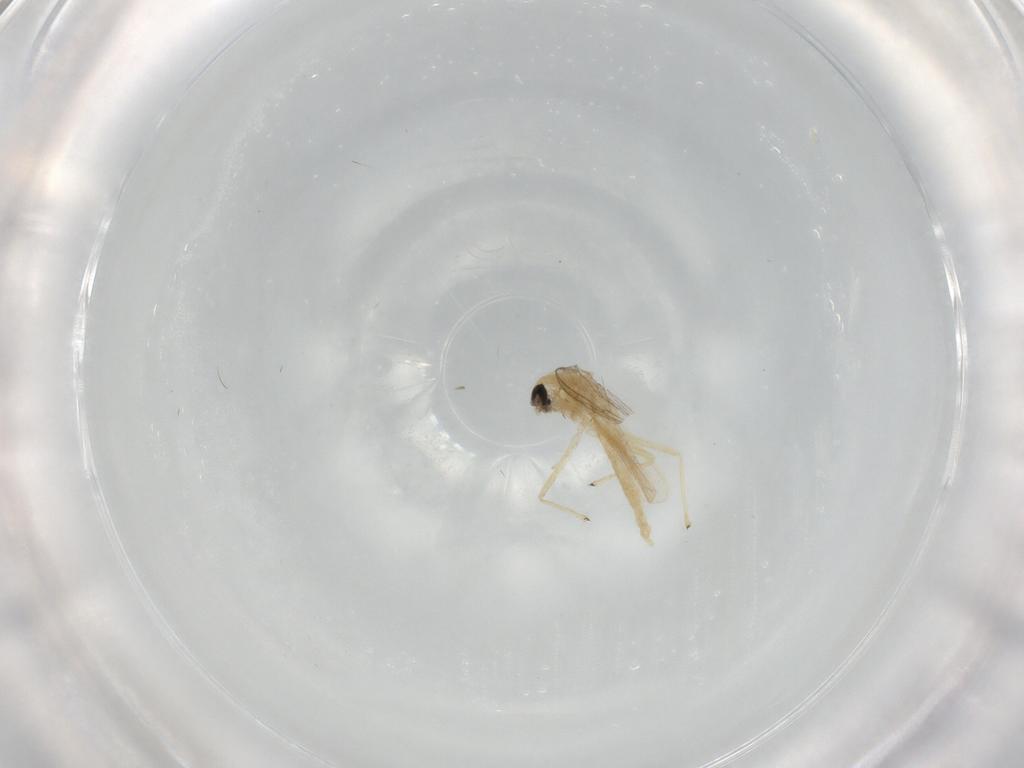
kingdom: Animalia
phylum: Arthropoda
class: Insecta
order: Diptera
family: Chironomidae
